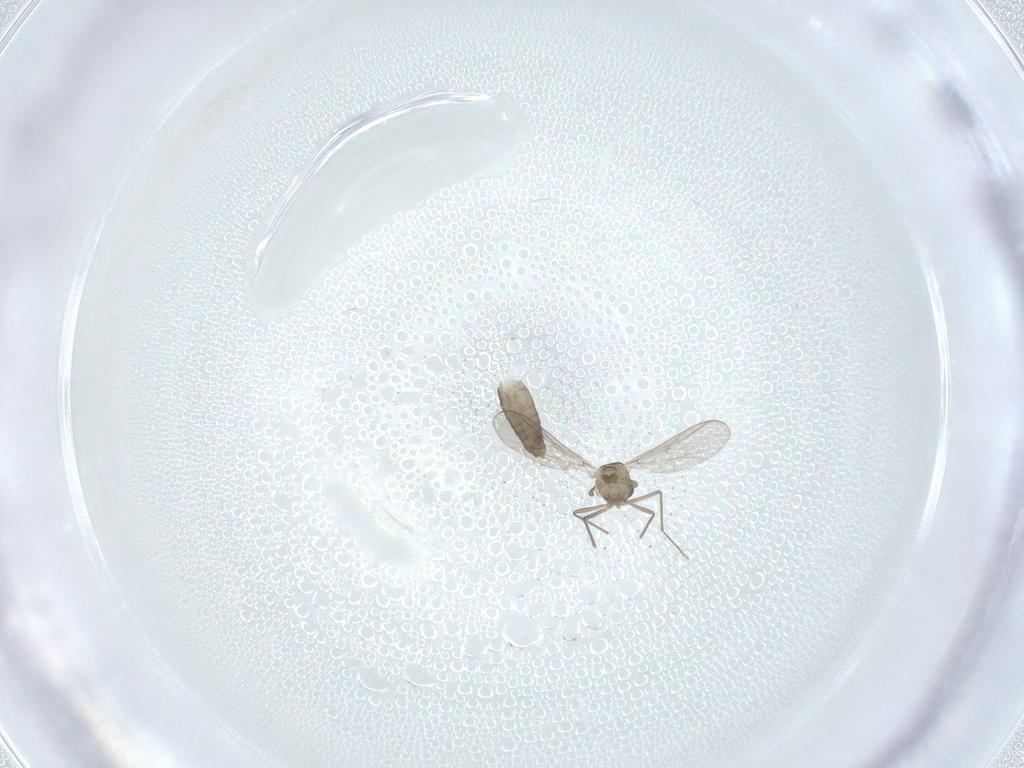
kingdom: Animalia
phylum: Arthropoda
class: Insecta
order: Diptera
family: Chironomidae
